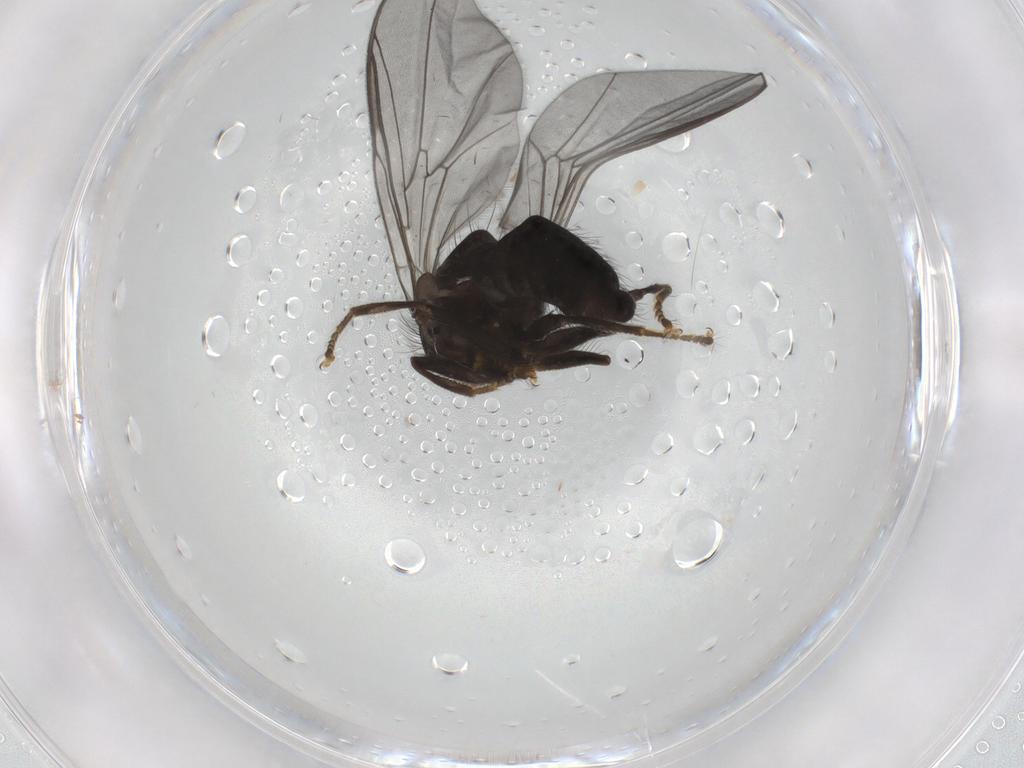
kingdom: Animalia
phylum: Arthropoda
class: Insecta
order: Diptera
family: Pipunculidae
